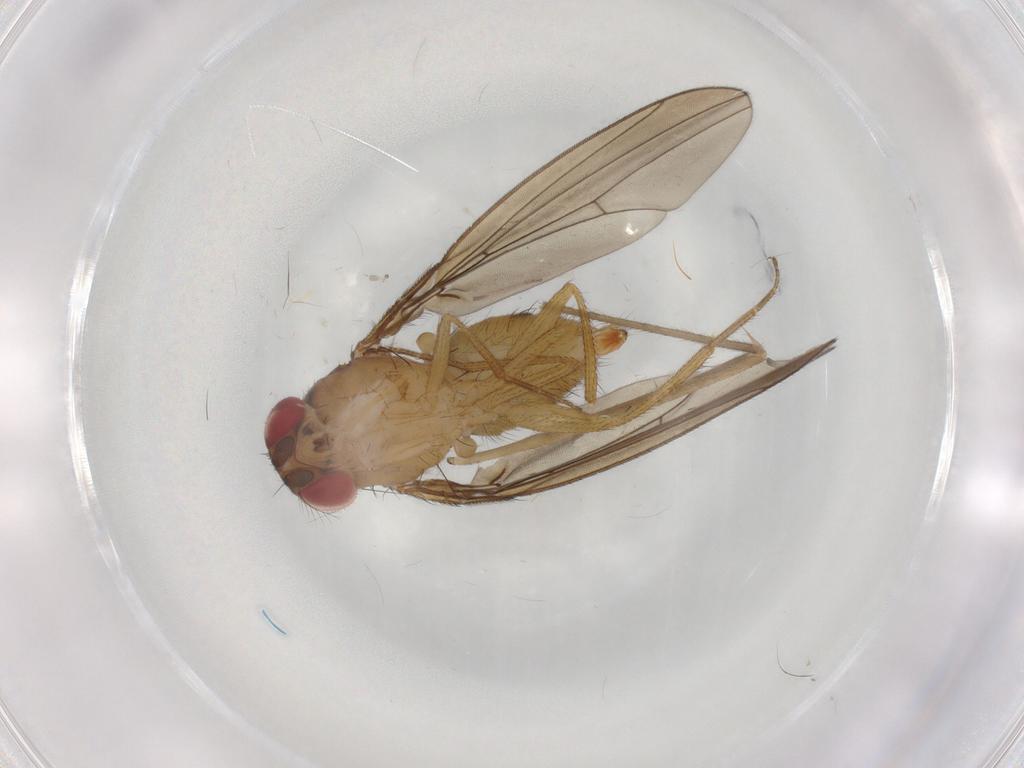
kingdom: Animalia
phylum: Arthropoda
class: Insecta
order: Diptera
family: Drosophilidae
